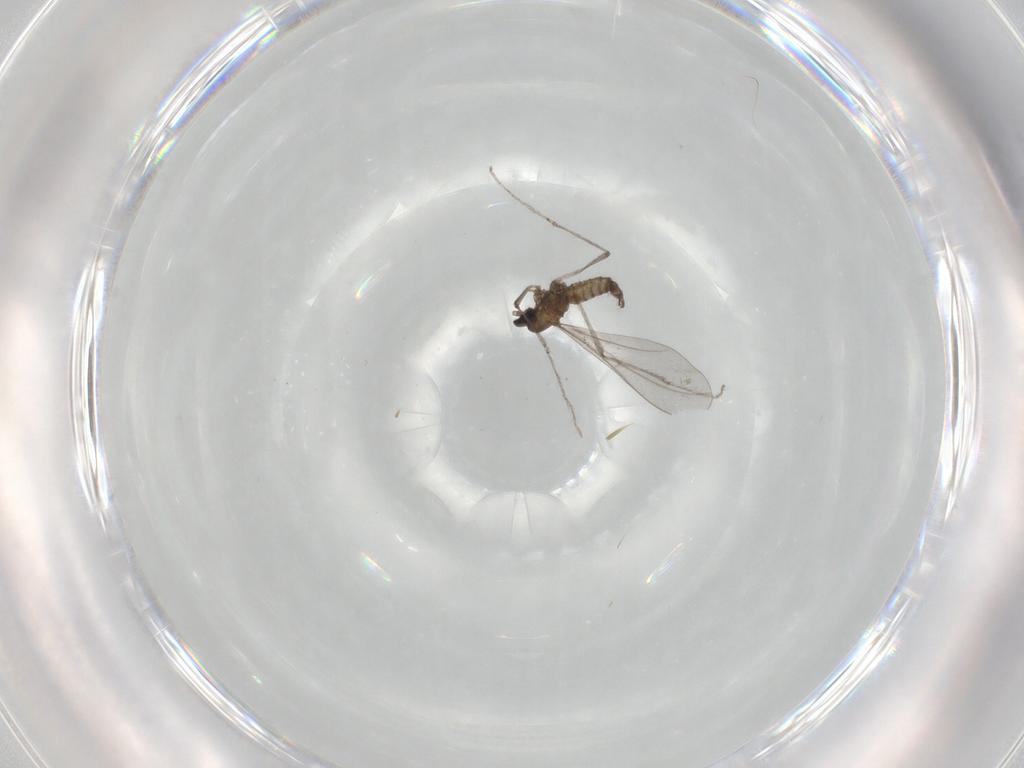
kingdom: Animalia
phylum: Arthropoda
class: Insecta
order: Diptera
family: Cecidomyiidae
